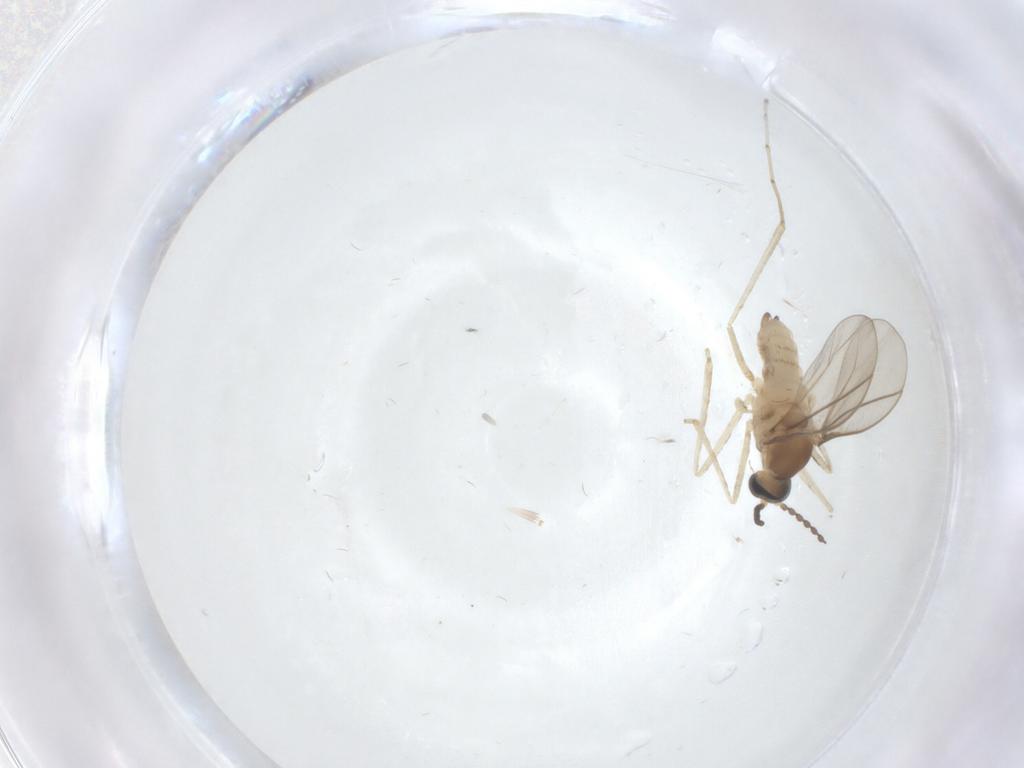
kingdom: Animalia
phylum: Arthropoda
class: Insecta
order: Diptera
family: Cecidomyiidae
